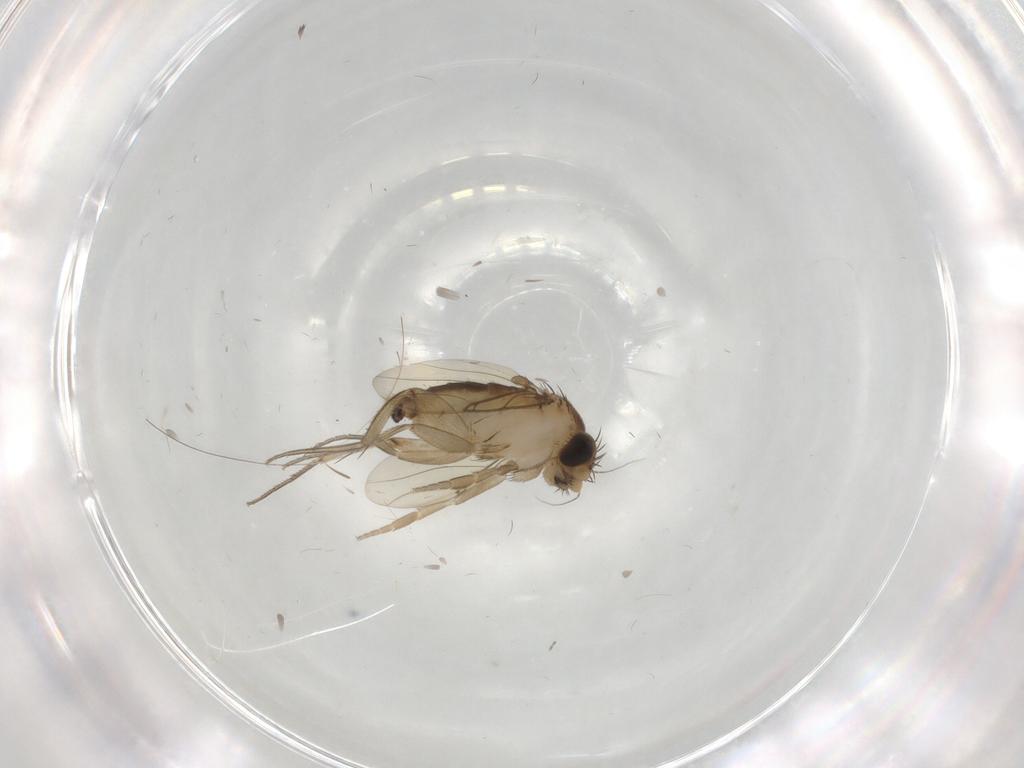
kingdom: Animalia
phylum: Arthropoda
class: Insecta
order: Diptera
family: Phoridae
